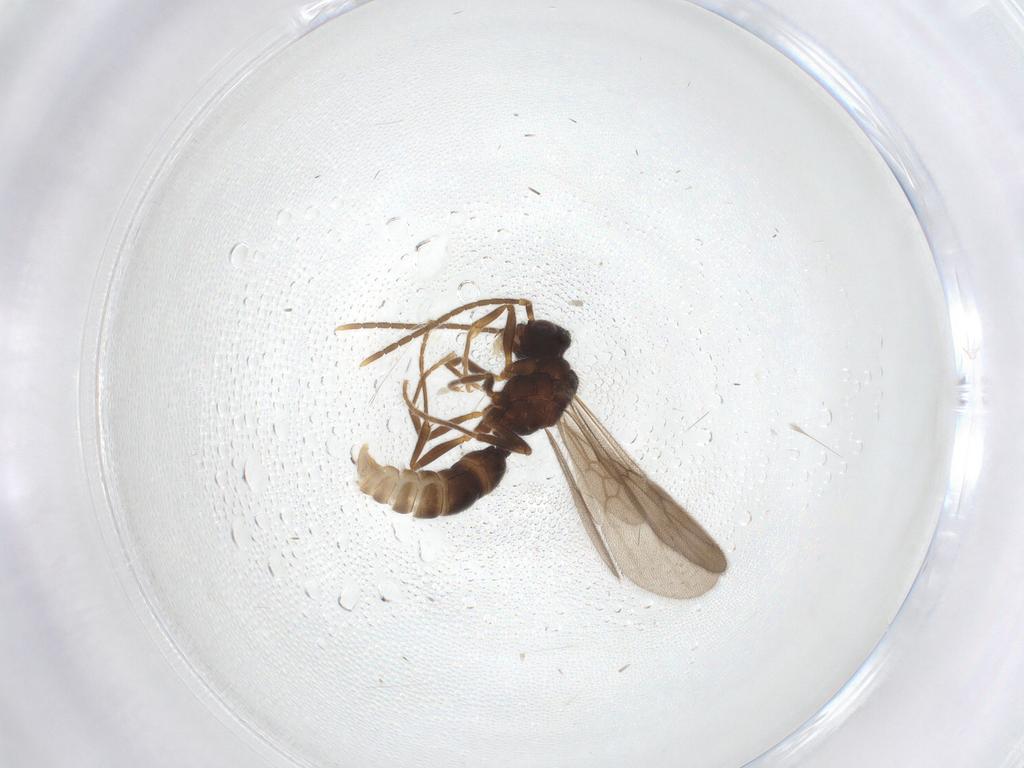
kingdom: Animalia
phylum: Arthropoda
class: Insecta
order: Hymenoptera
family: Formicidae
